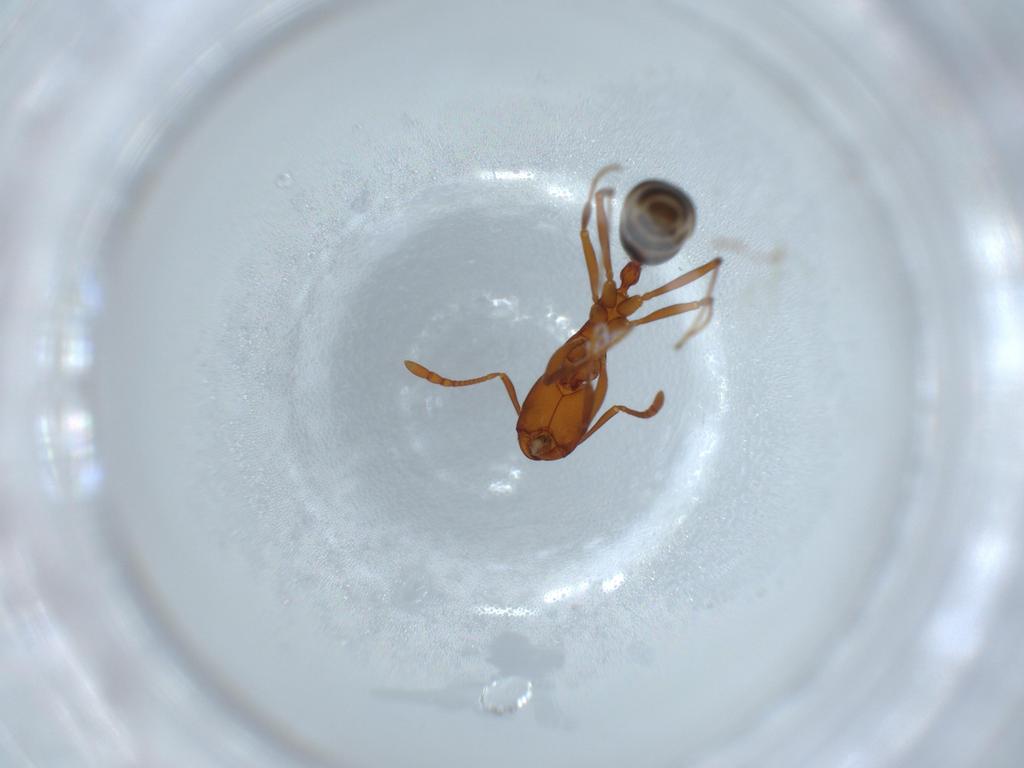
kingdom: Animalia
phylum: Arthropoda
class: Insecta
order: Hymenoptera
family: Formicidae
